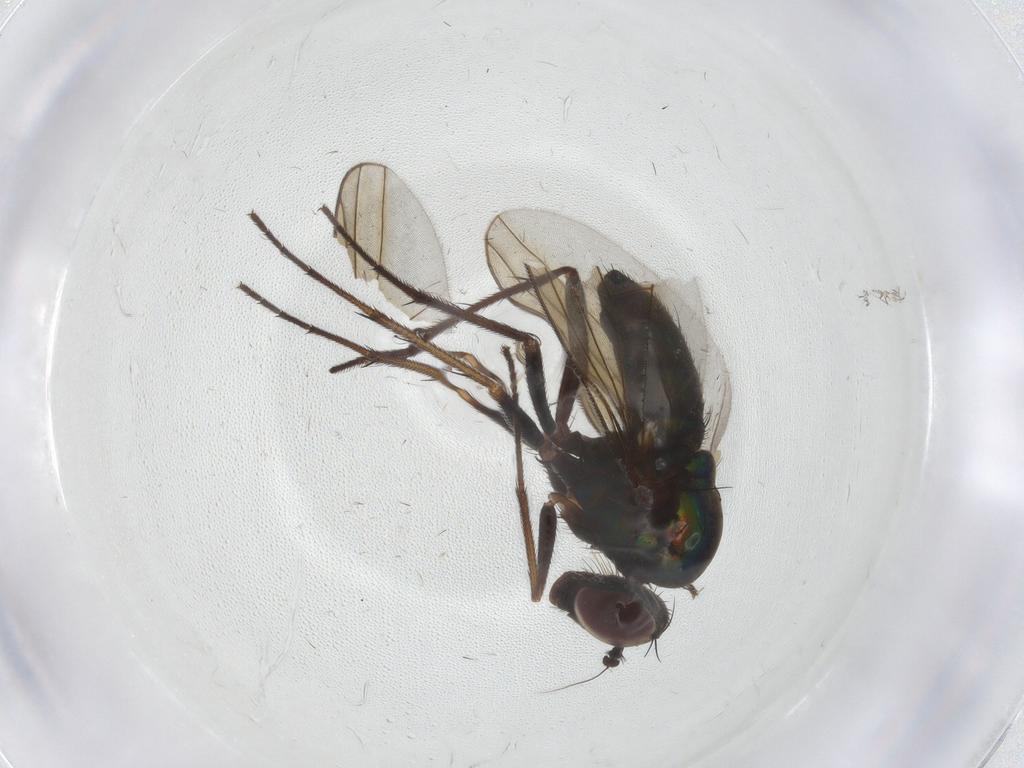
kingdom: Animalia
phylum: Arthropoda
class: Insecta
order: Diptera
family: Dolichopodidae
